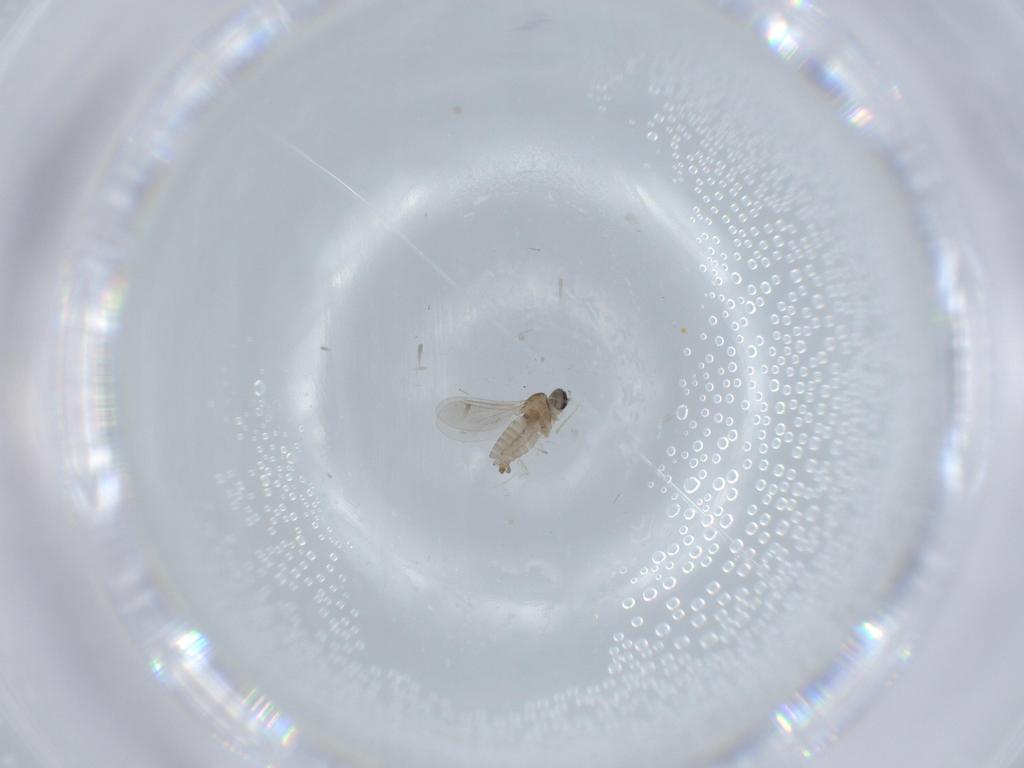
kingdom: Animalia
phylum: Arthropoda
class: Insecta
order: Diptera
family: Cecidomyiidae
